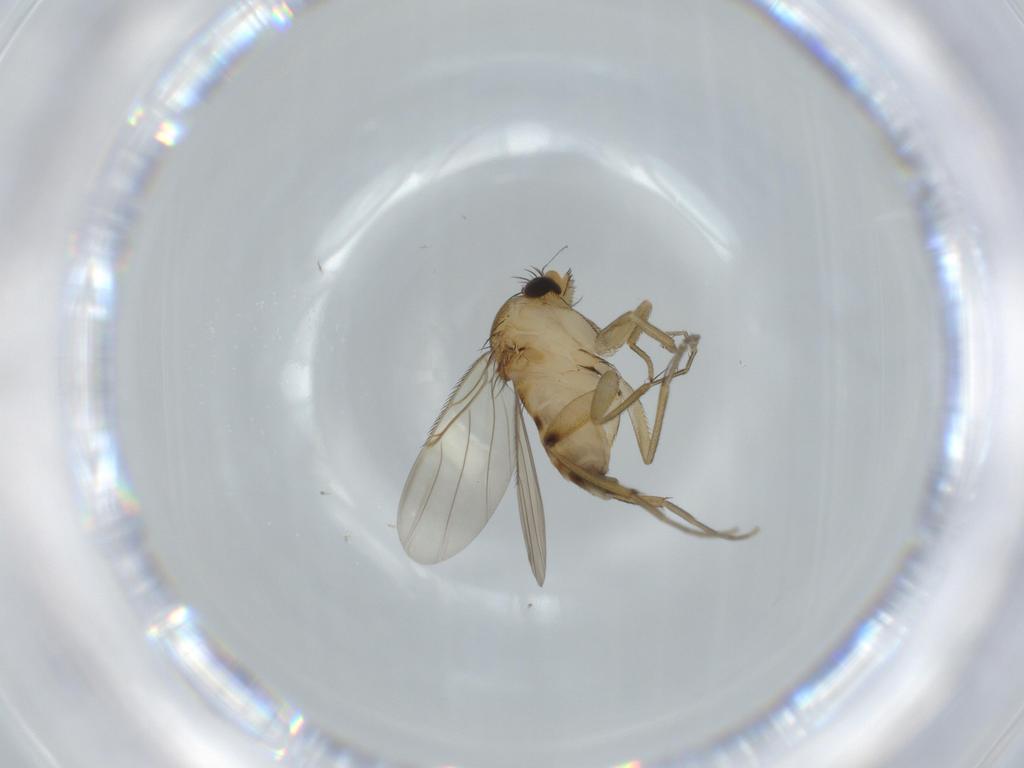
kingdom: Animalia
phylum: Arthropoda
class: Insecta
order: Diptera
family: Phoridae
